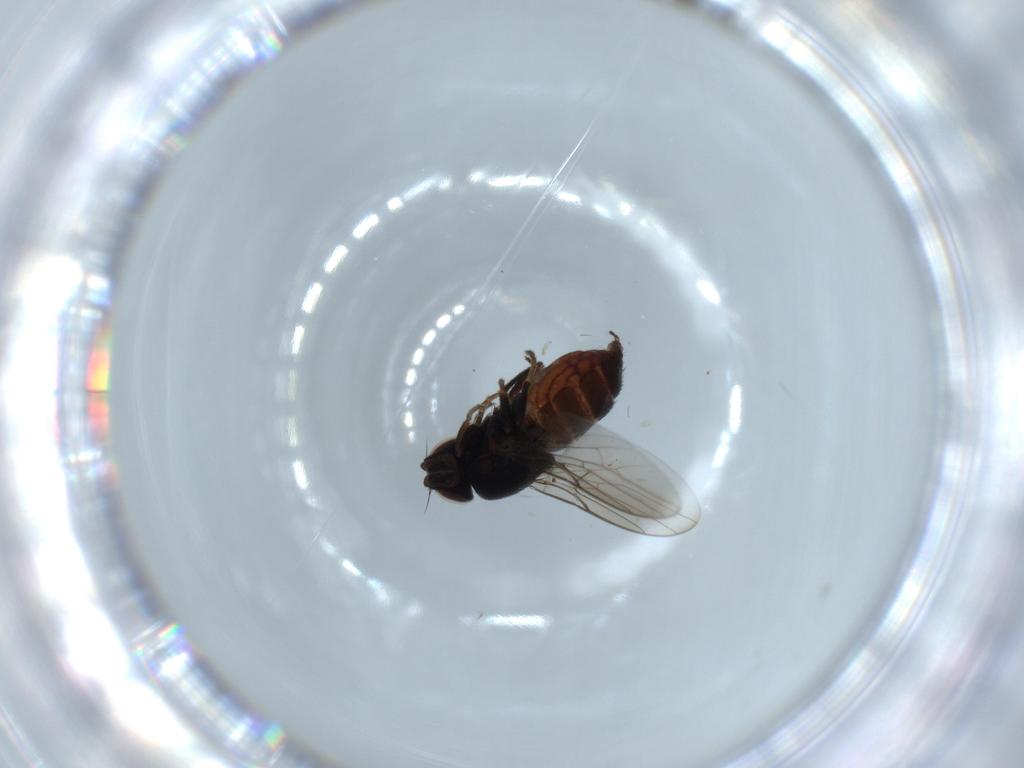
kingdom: Animalia
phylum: Arthropoda
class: Insecta
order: Diptera
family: Chloropidae
